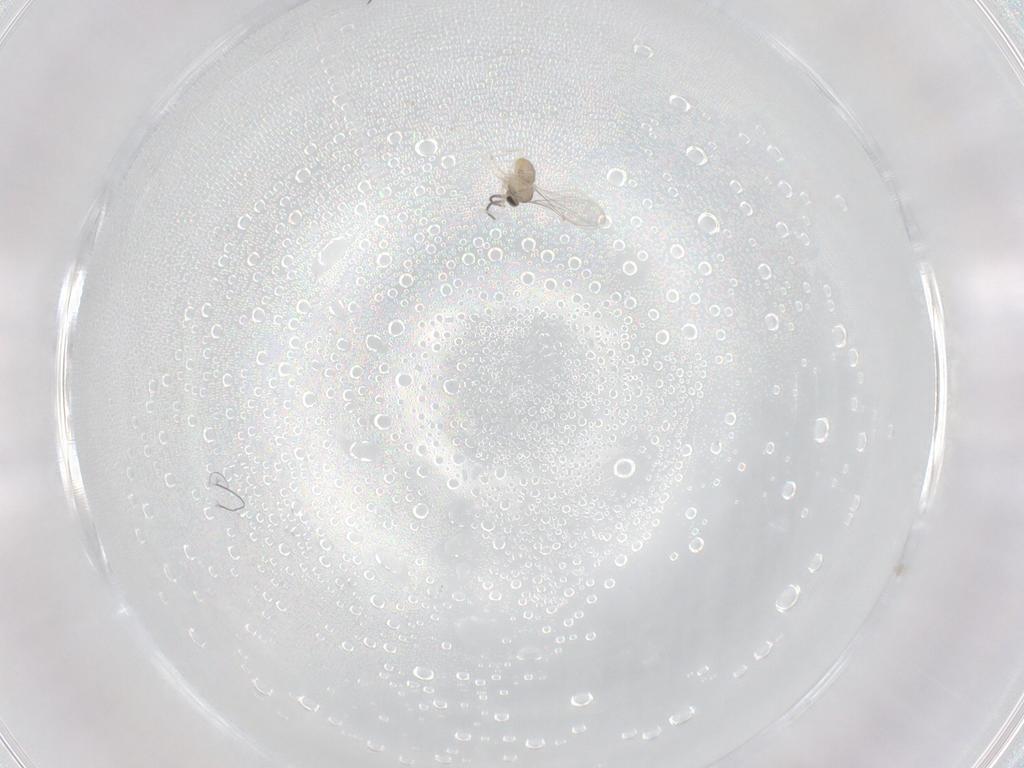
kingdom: Animalia
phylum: Arthropoda
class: Insecta
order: Diptera
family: Cecidomyiidae
